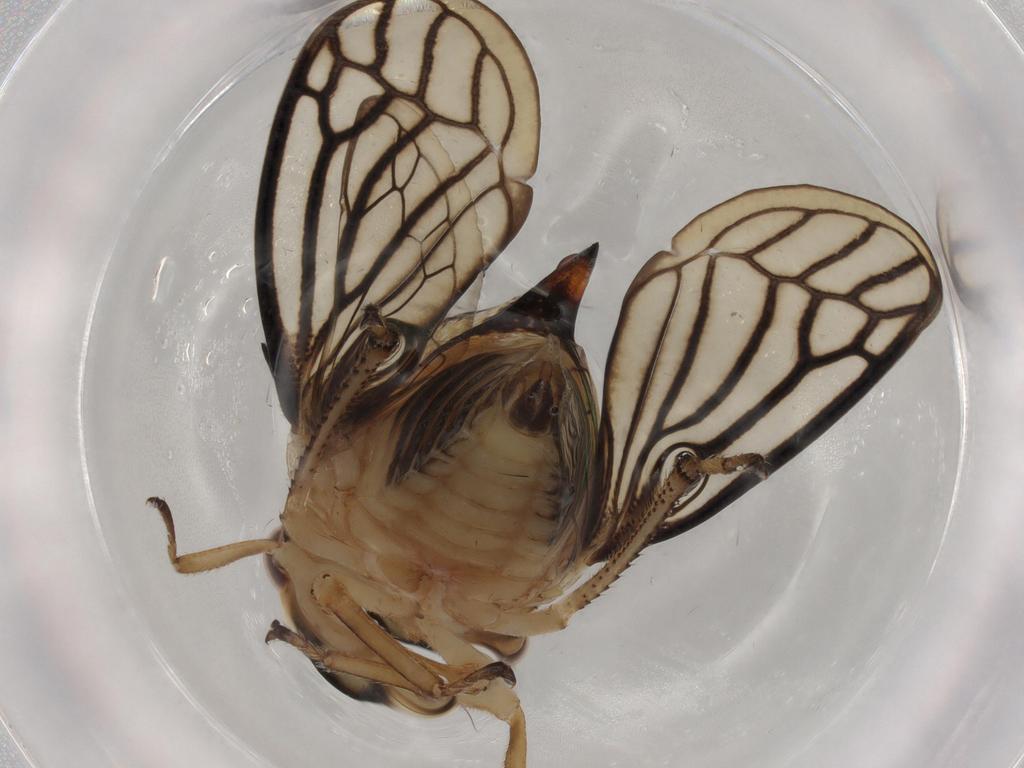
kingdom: Animalia
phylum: Arthropoda
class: Insecta
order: Hemiptera
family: Membracidae
